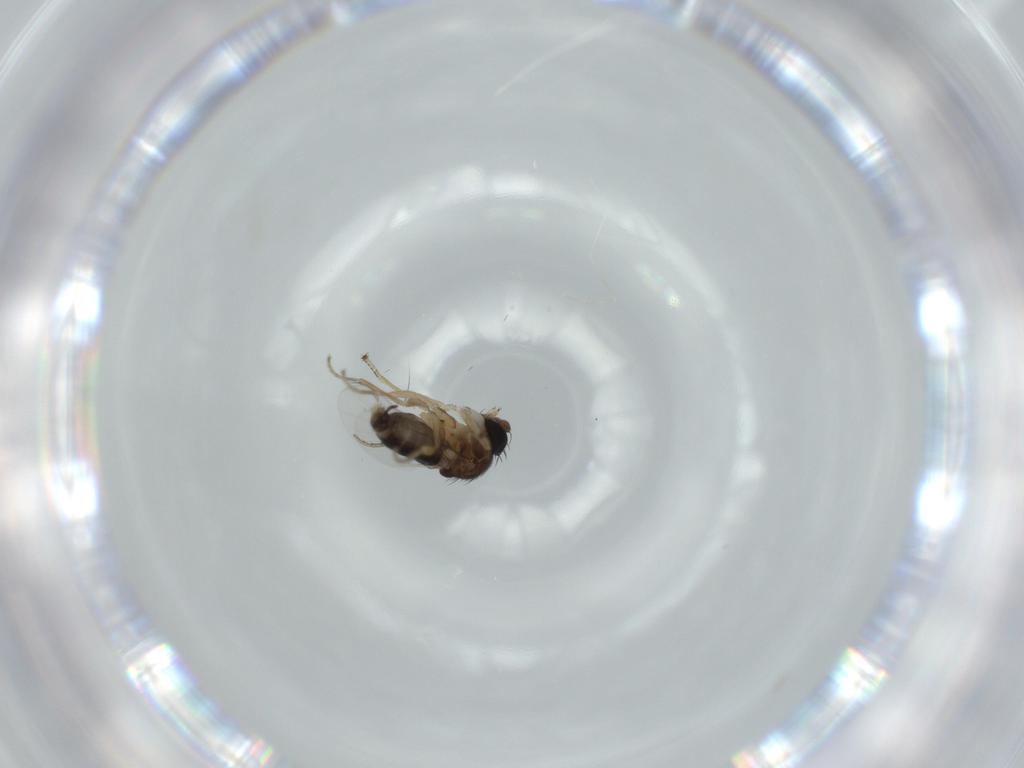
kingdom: Animalia
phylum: Arthropoda
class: Insecta
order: Diptera
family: Phoridae
